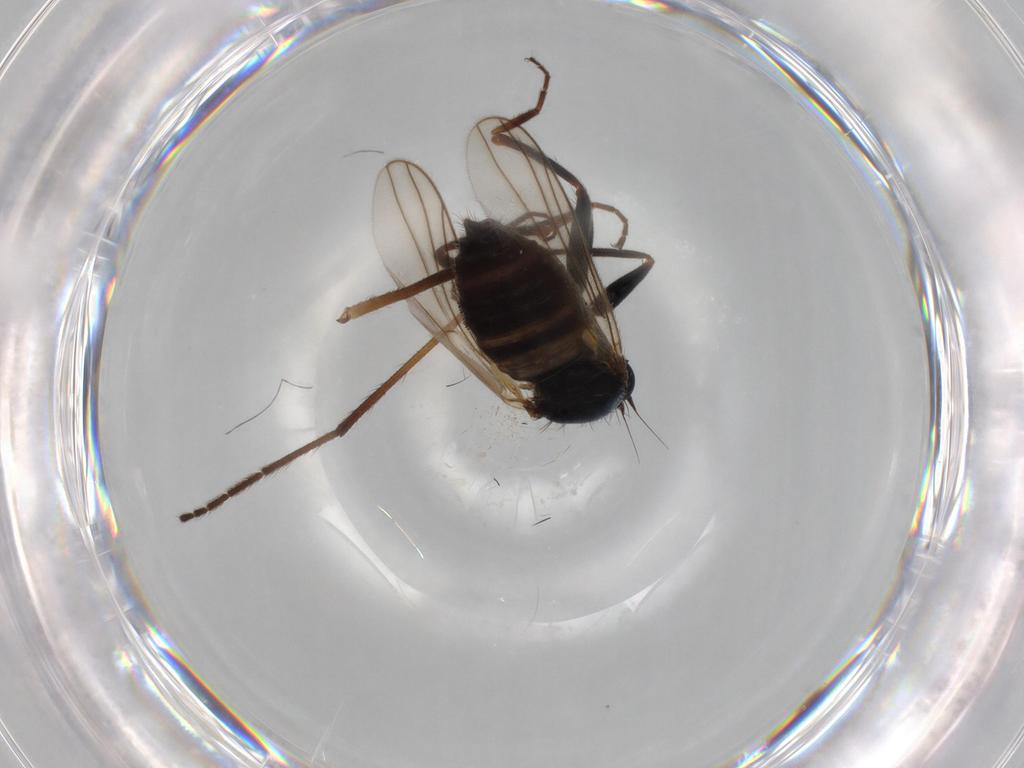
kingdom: Animalia
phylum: Arthropoda
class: Insecta
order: Diptera
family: Limoniidae
